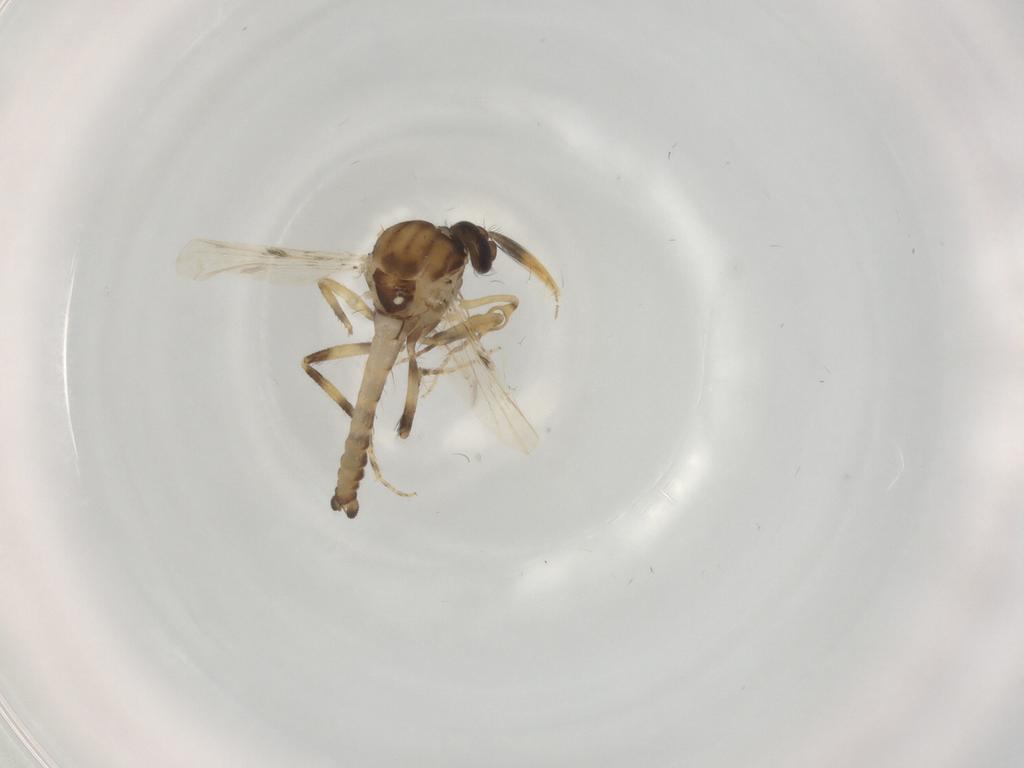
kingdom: Animalia
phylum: Arthropoda
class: Insecta
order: Diptera
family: Ceratopogonidae
